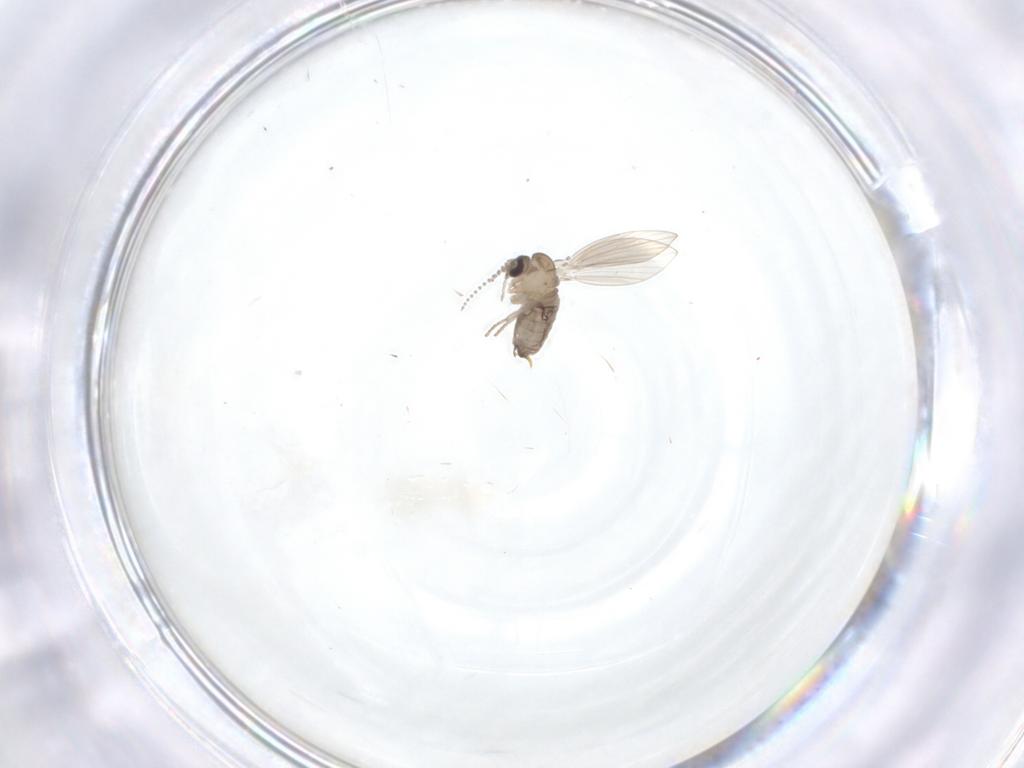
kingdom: Animalia
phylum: Arthropoda
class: Insecta
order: Diptera
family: Psychodidae
